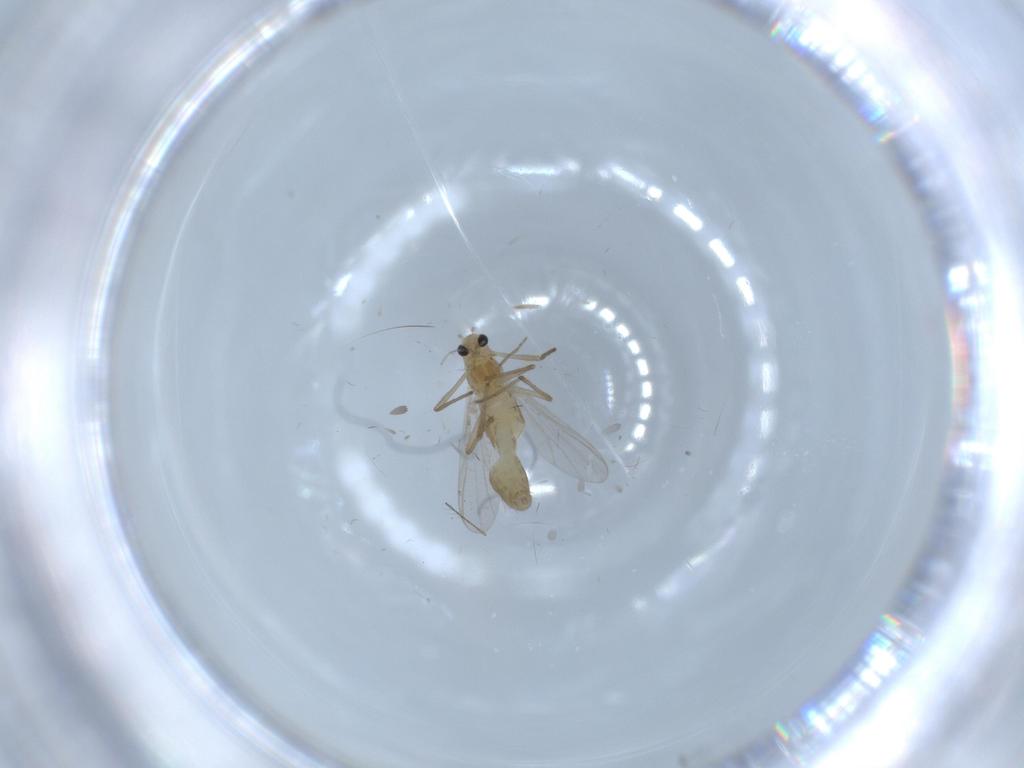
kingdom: Animalia
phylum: Arthropoda
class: Insecta
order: Diptera
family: Chironomidae
